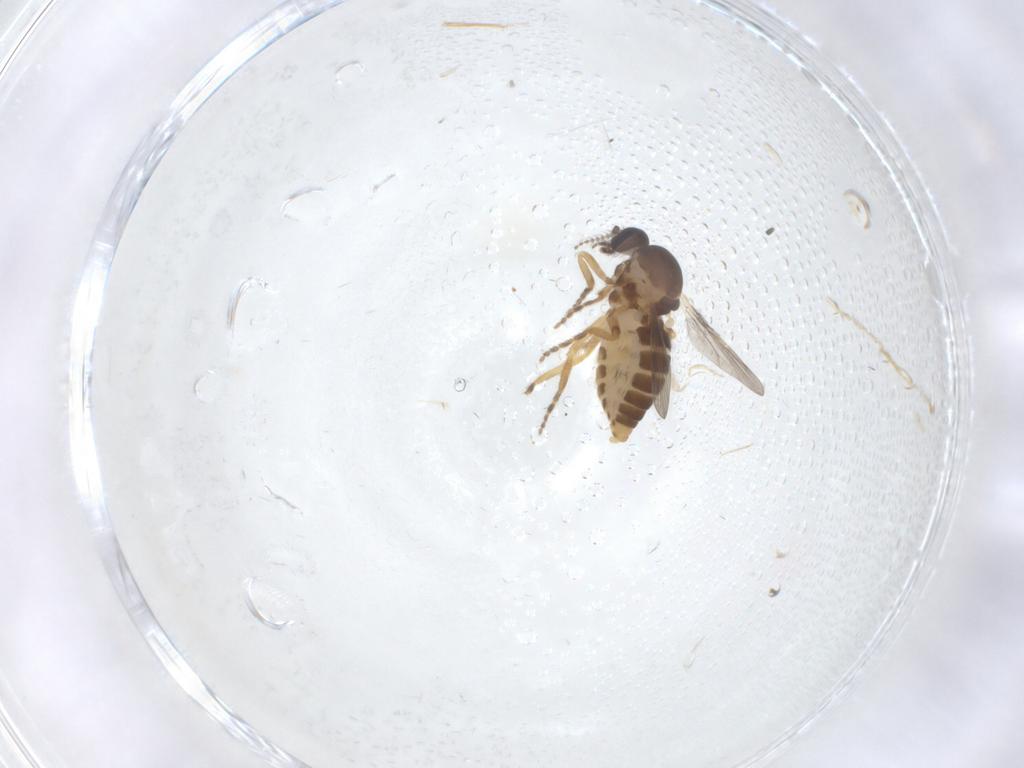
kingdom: Animalia
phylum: Arthropoda
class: Insecta
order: Diptera
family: Ceratopogonidae
